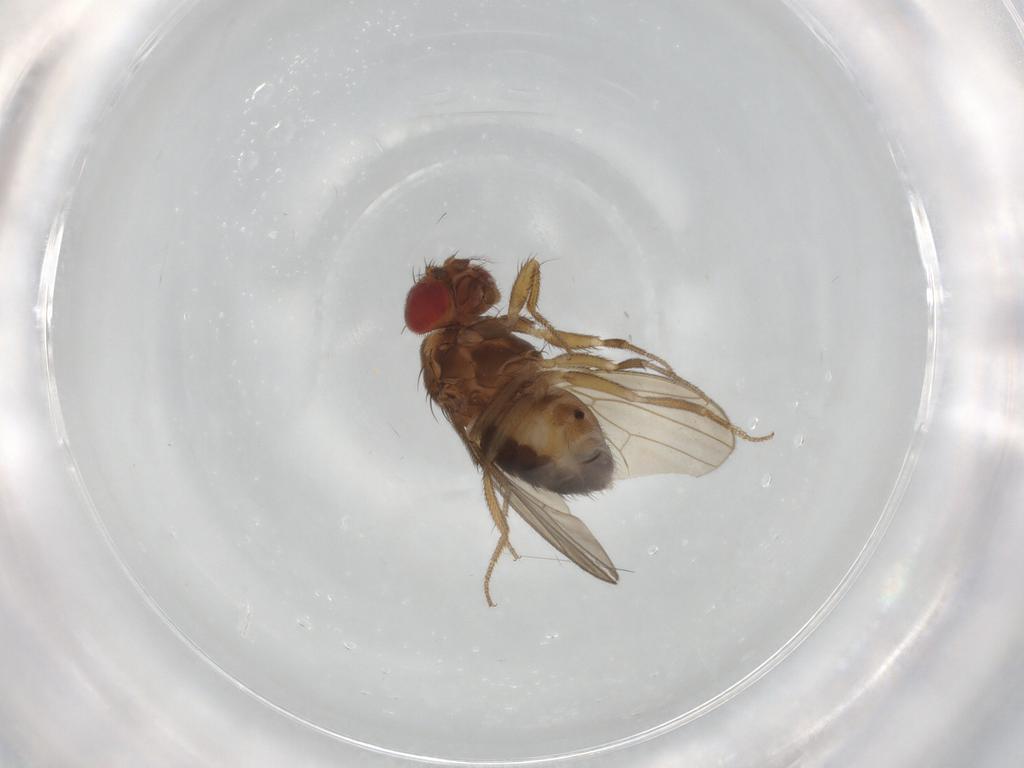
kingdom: Animalia
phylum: Arthropoda
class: Insecta
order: Diptera
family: Drosophilidae
